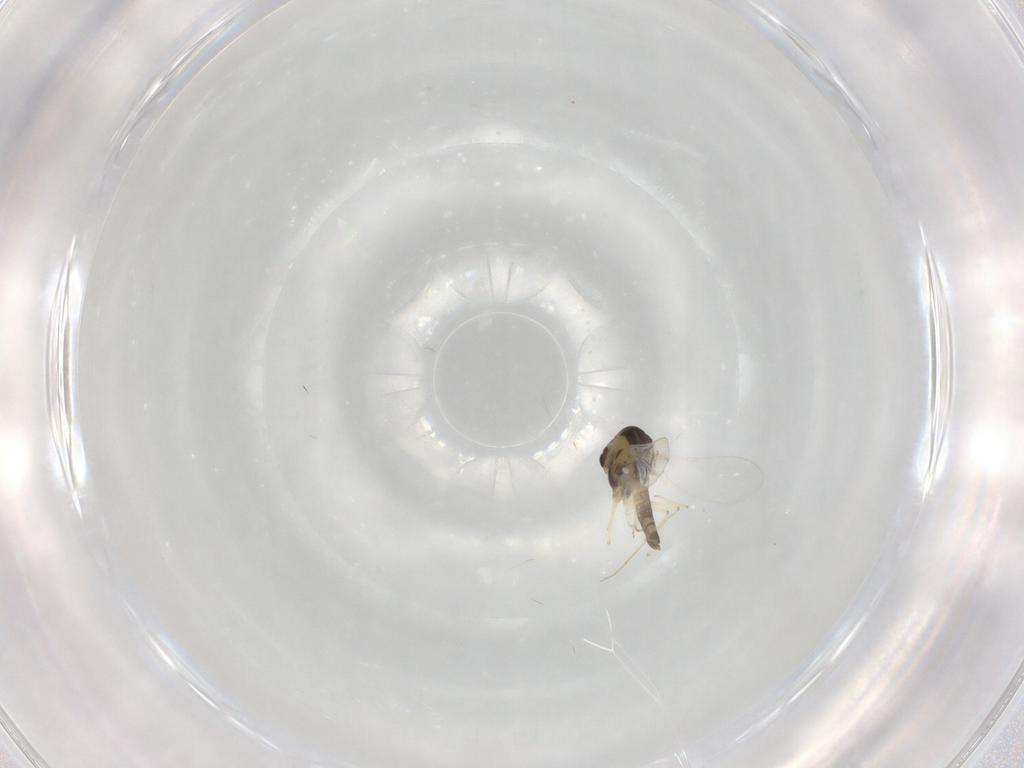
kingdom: Animalia
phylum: Arthropoda
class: Insecta
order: Diptera
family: Chironomidae
